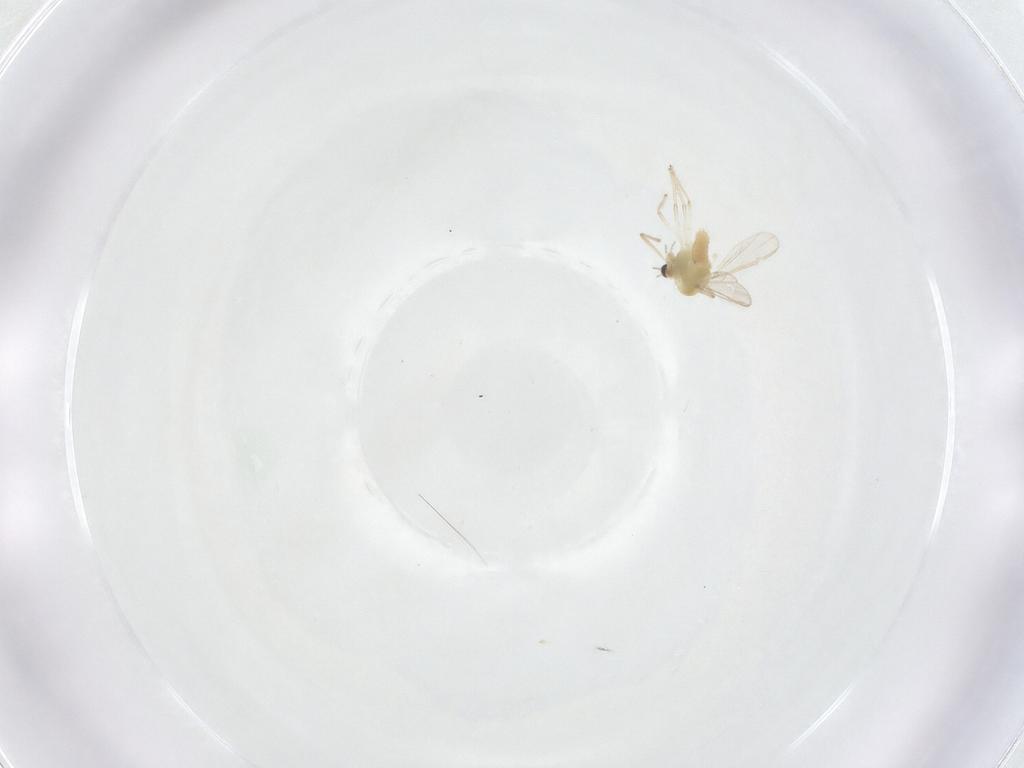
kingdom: Animalia
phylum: Arthropoda
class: Insecta
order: Diptera
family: Chironomidae
